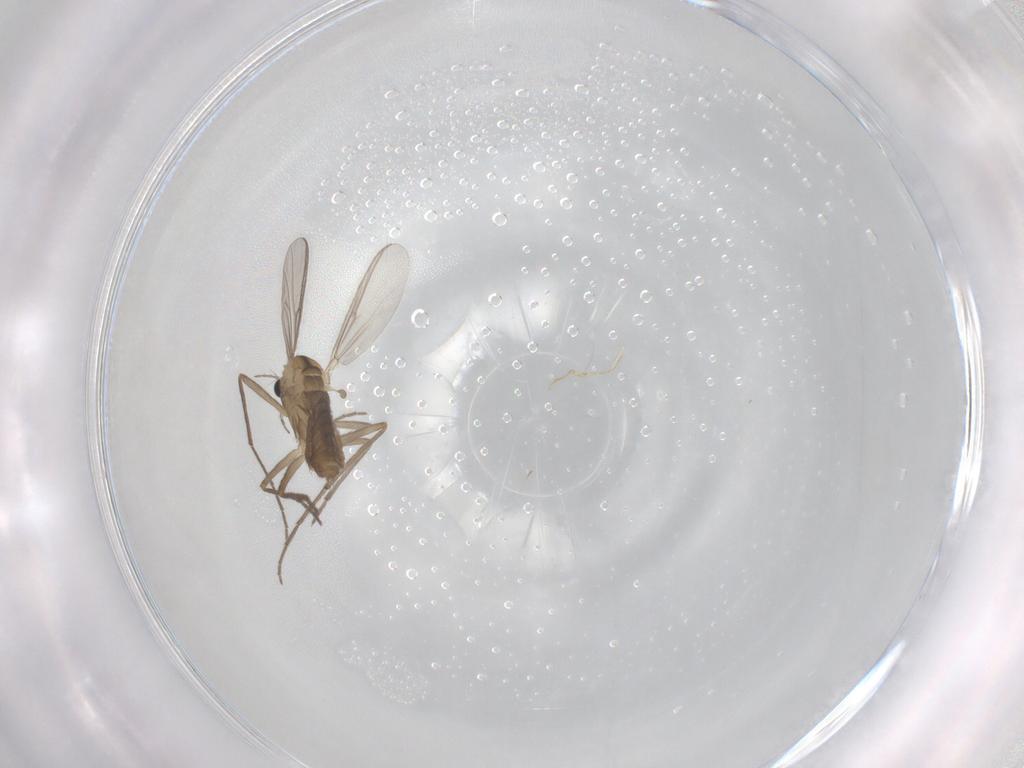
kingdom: Animalia
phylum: Arthropoda
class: Insecta
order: Diptera
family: Chironomidae
